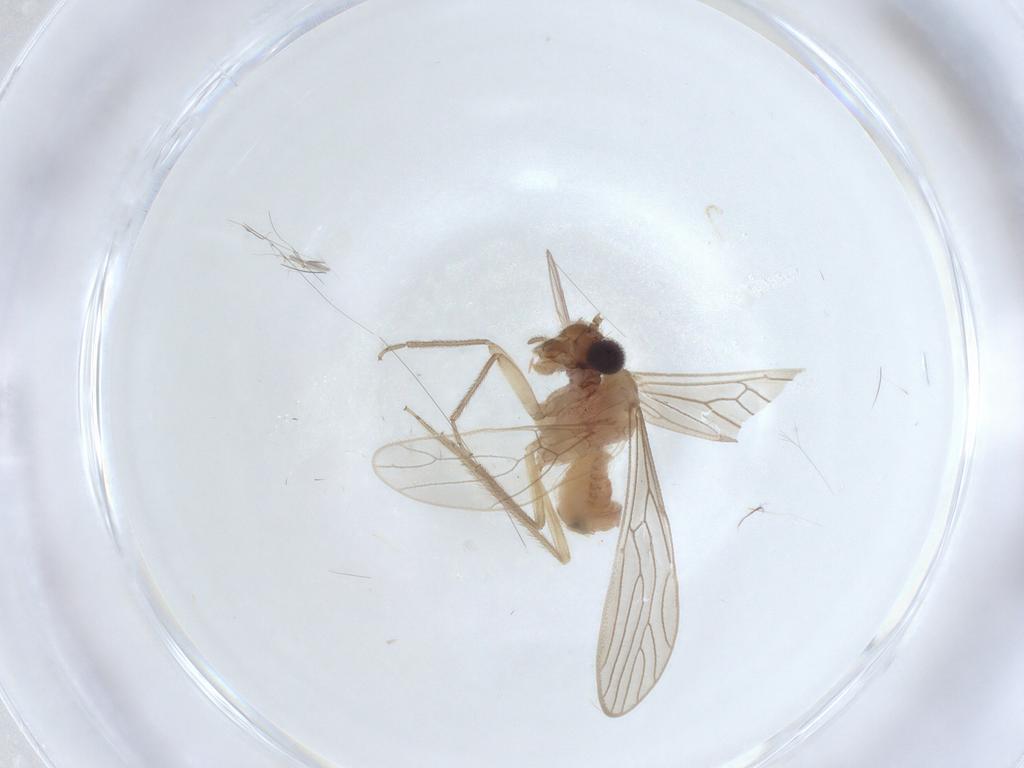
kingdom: Animalia
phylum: Arthropoda
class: Insecta
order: Psocodea
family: Epipsocidae
